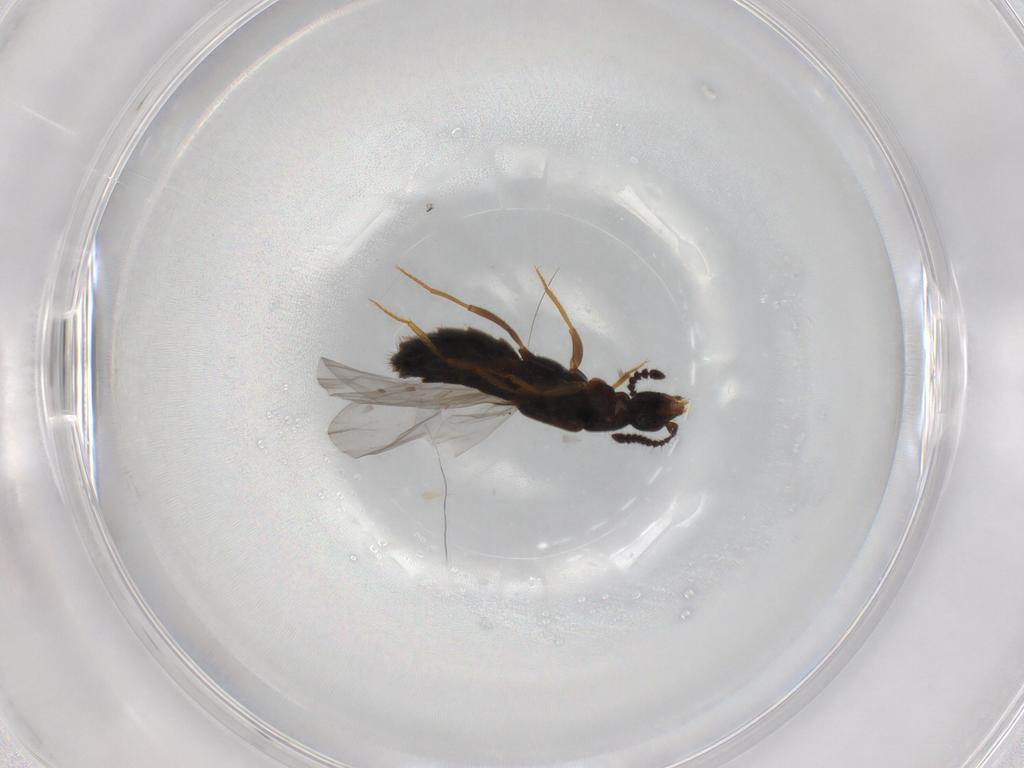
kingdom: Animalia
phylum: Arthropoda
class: Insecta
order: Coleoptera
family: Staphylinidae
